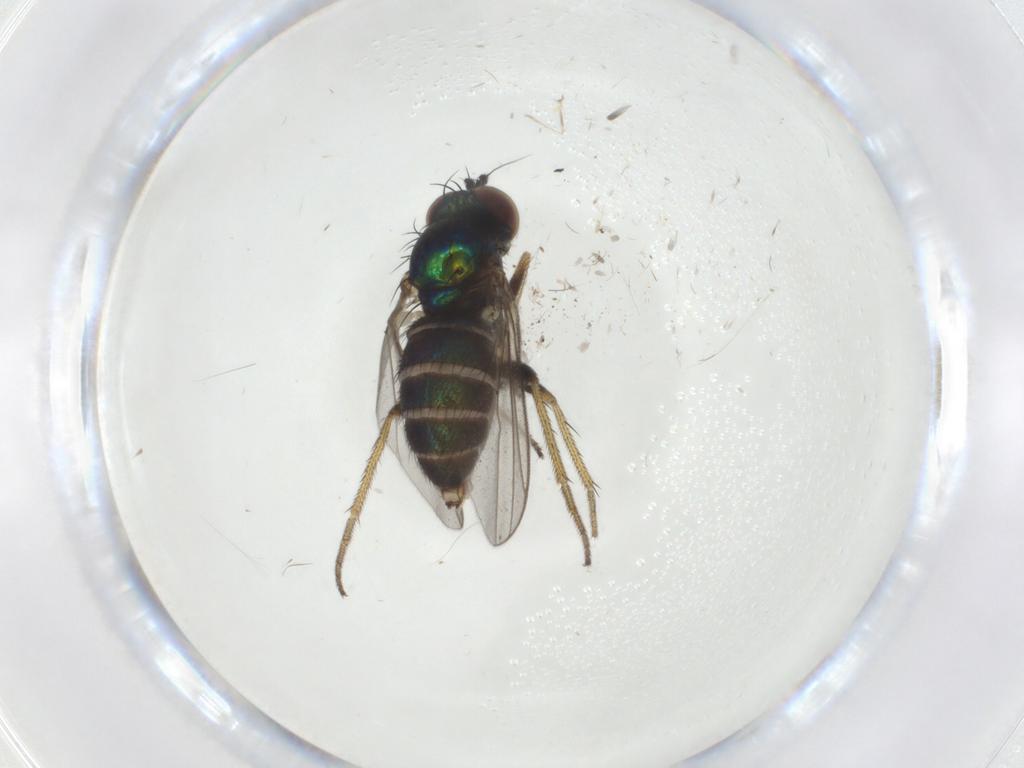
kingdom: Animalia
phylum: Arthropoda
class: Insecta
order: Diptera
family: Dolichopodidae
